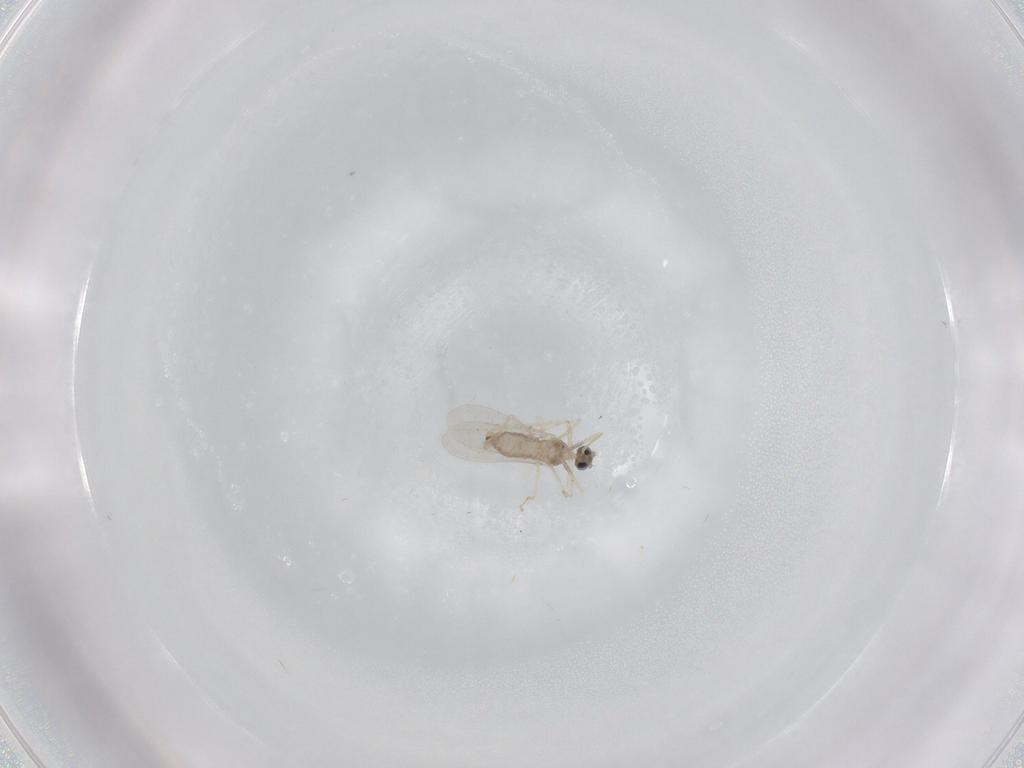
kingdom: Animalia
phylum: Arthropoda
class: Insecta
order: Diptera
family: Cecidomyiidae
